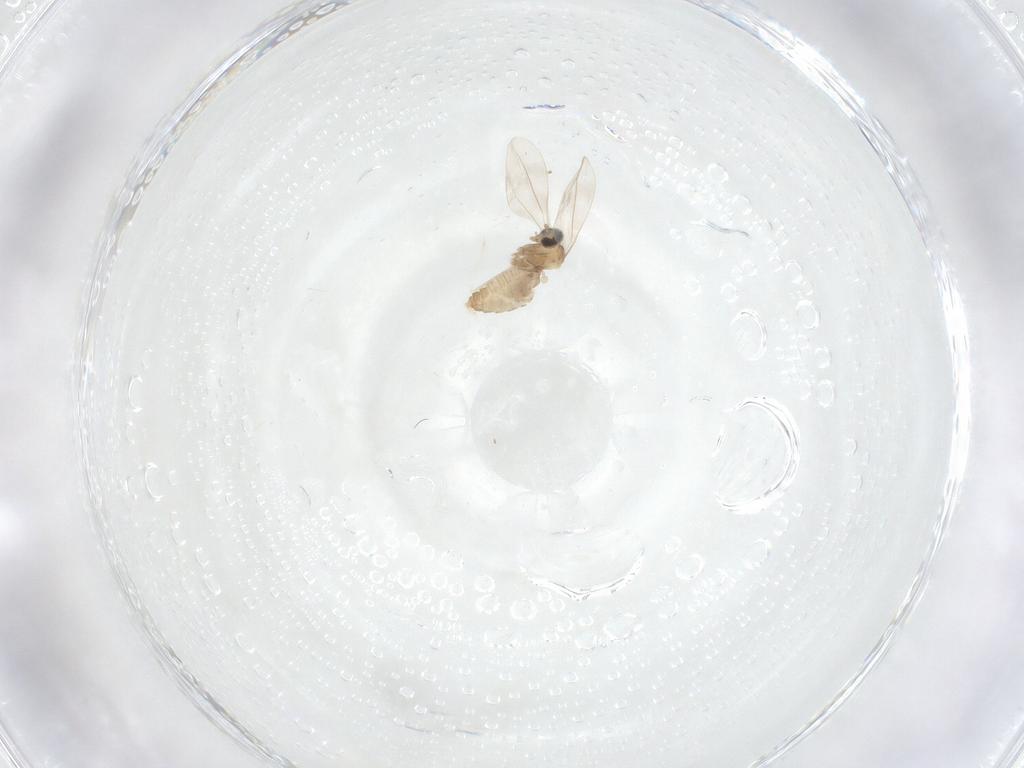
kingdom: Animalia
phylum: Arthropoda
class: Insecta
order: Diptera
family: Cecidomyiidae
